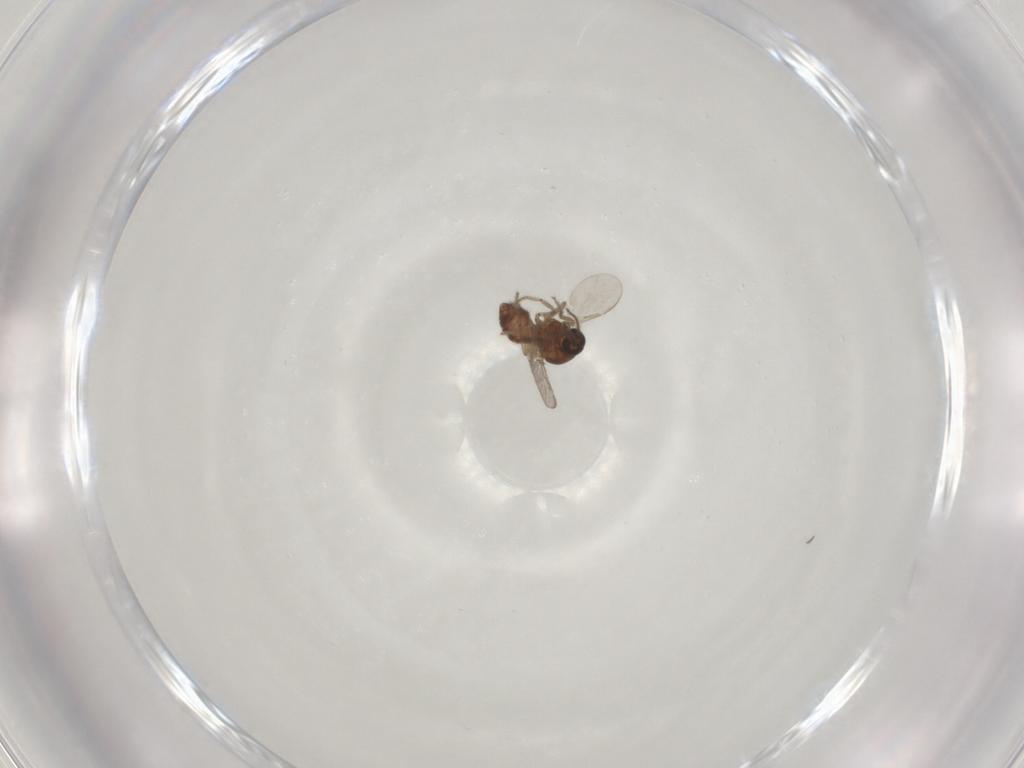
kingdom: Animalia
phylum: Arthropoda
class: Insecta
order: Diptera
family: Ceratopogonidae
